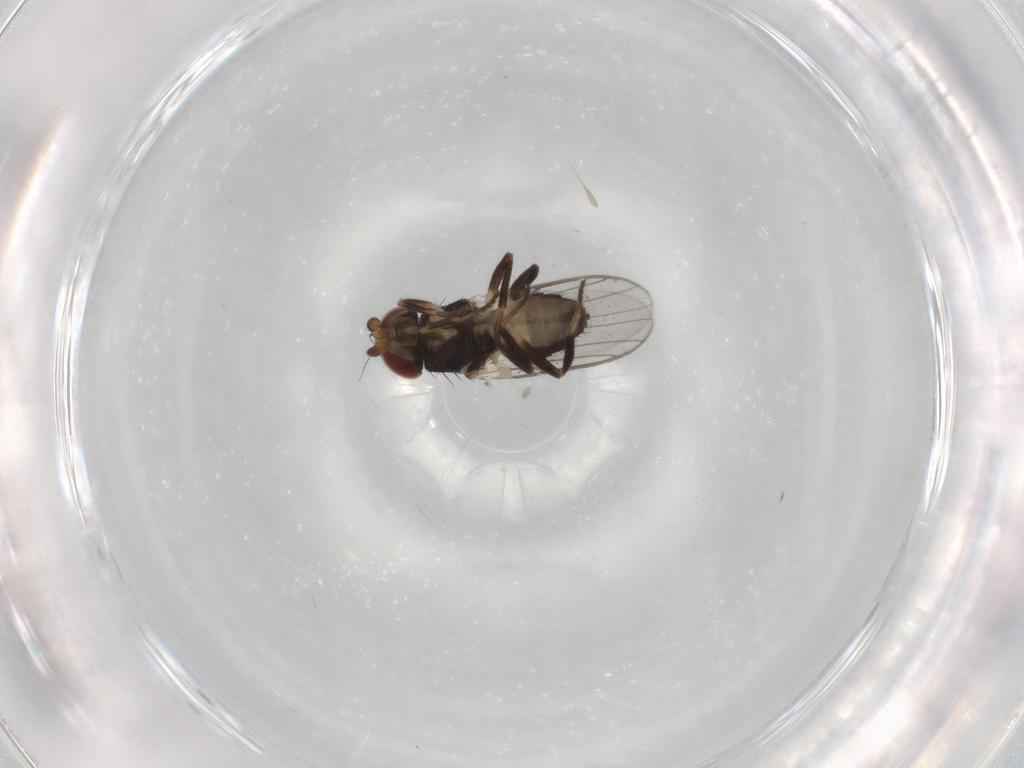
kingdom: Animalia
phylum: Arthropoda
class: Insecta
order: Diptera
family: Chloropidae
